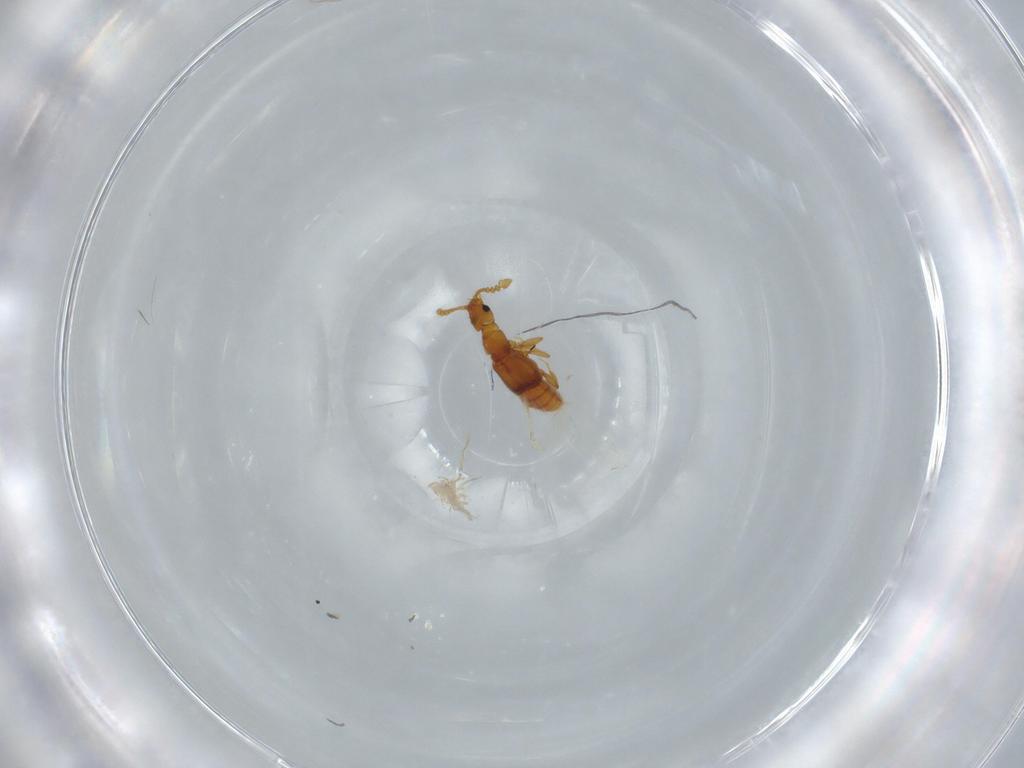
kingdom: Animalia
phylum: Arthropoda
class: Insecta
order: Coleoptera
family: Staphylinidae
